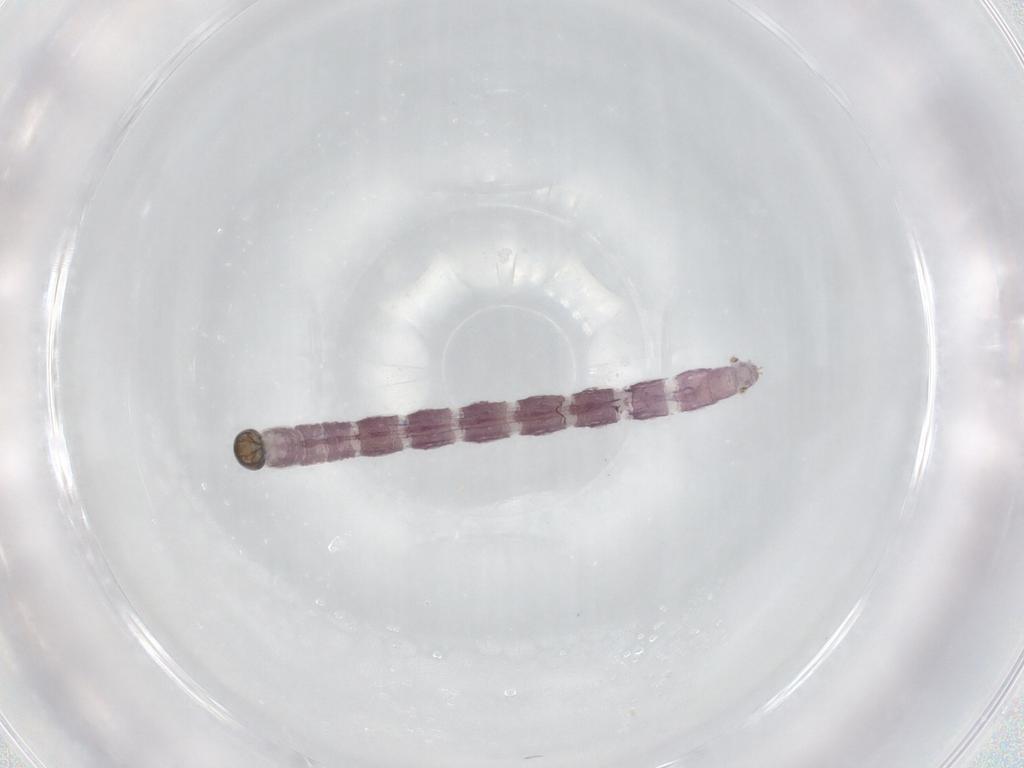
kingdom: Animalia
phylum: Arthropoda
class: Insecta
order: Diptera
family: Chironomidae
